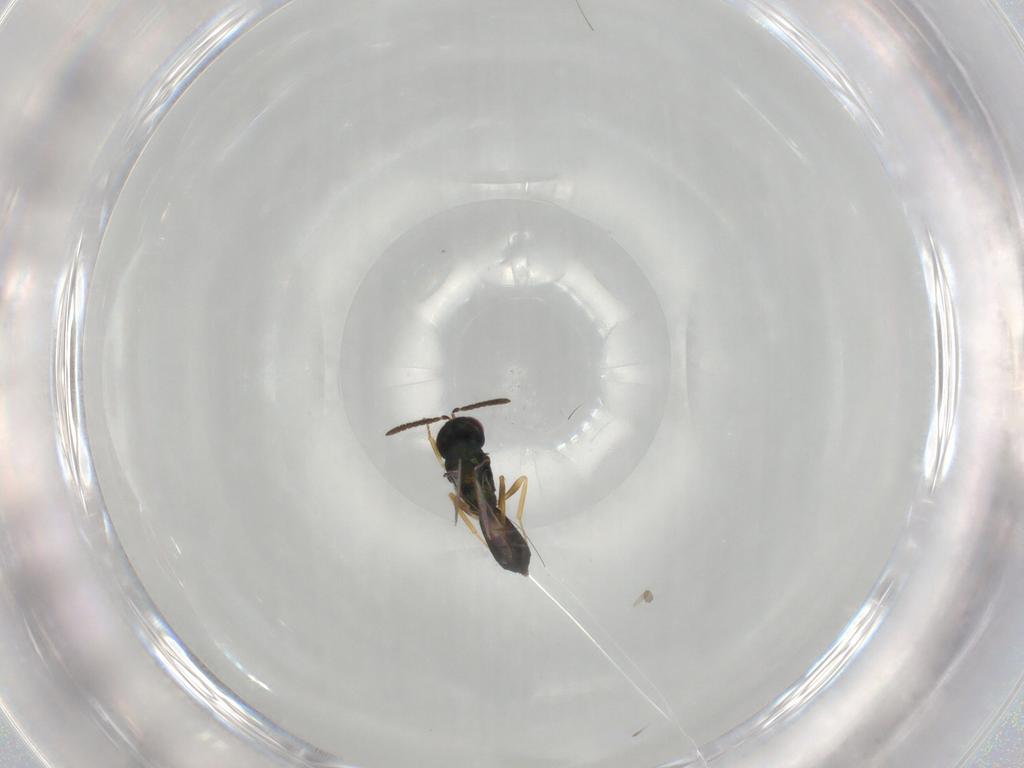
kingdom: Animalia
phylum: Arthropoda
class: Insecta
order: Hymenoptera
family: Pteromalidae
